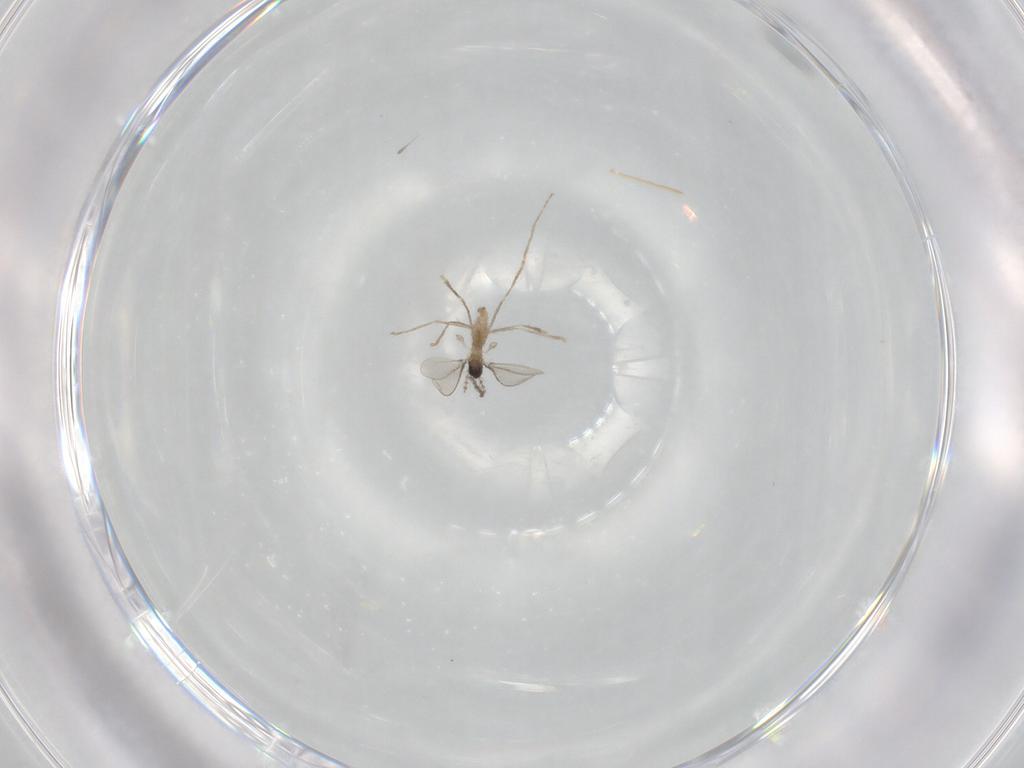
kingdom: Animalia
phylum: Arthropoda
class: Insecta
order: Diptera
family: Cecidomyiidae
